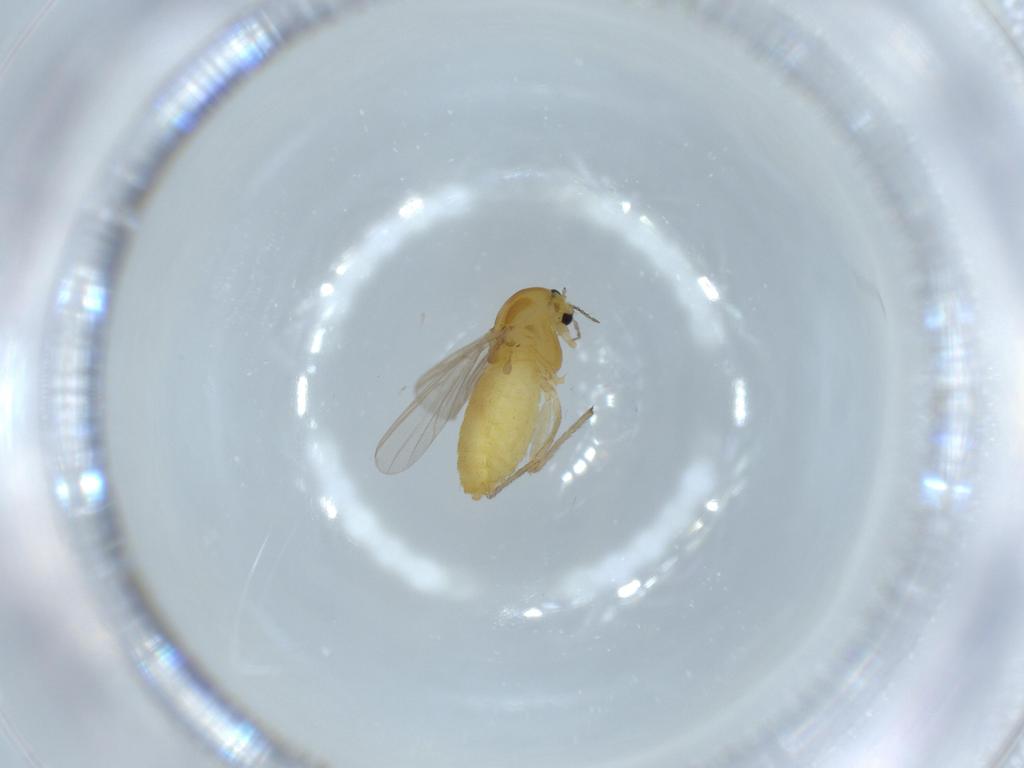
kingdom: Animalia
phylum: Arthropoda
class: Insecta
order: Diptera
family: Chironomidae
